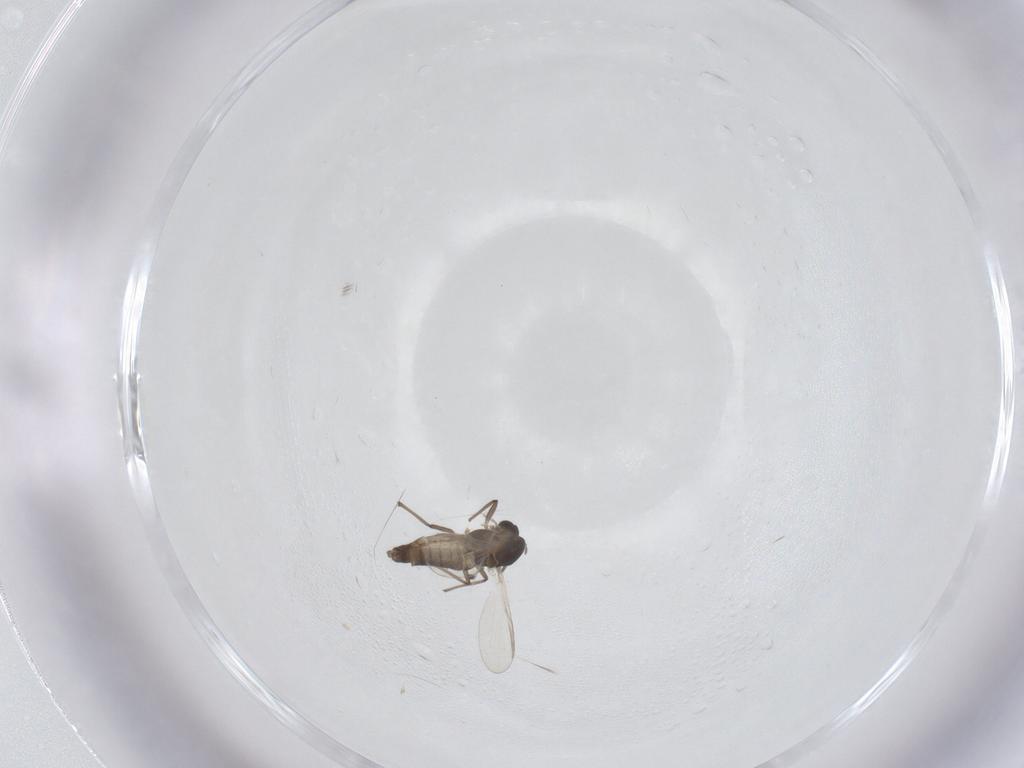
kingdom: Animalia
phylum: Arthropoda
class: Insecta
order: Diptera
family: Chironomidae
